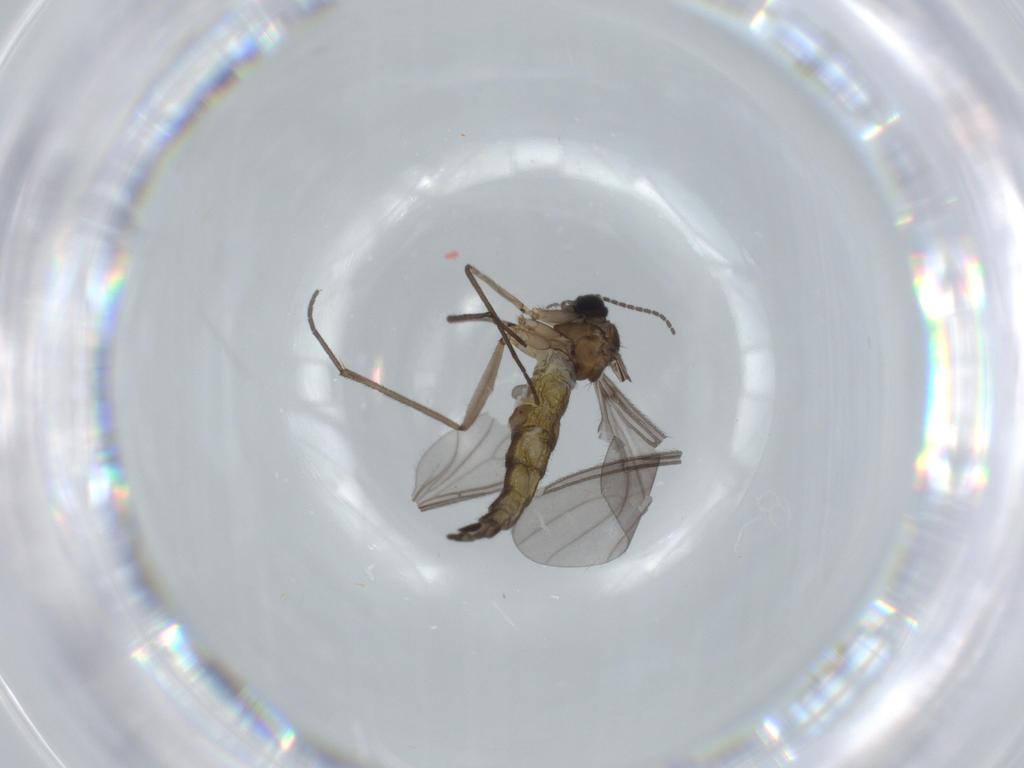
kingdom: Animalia
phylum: Arthropoda
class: Insecta
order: Diptera
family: Sciaridae
